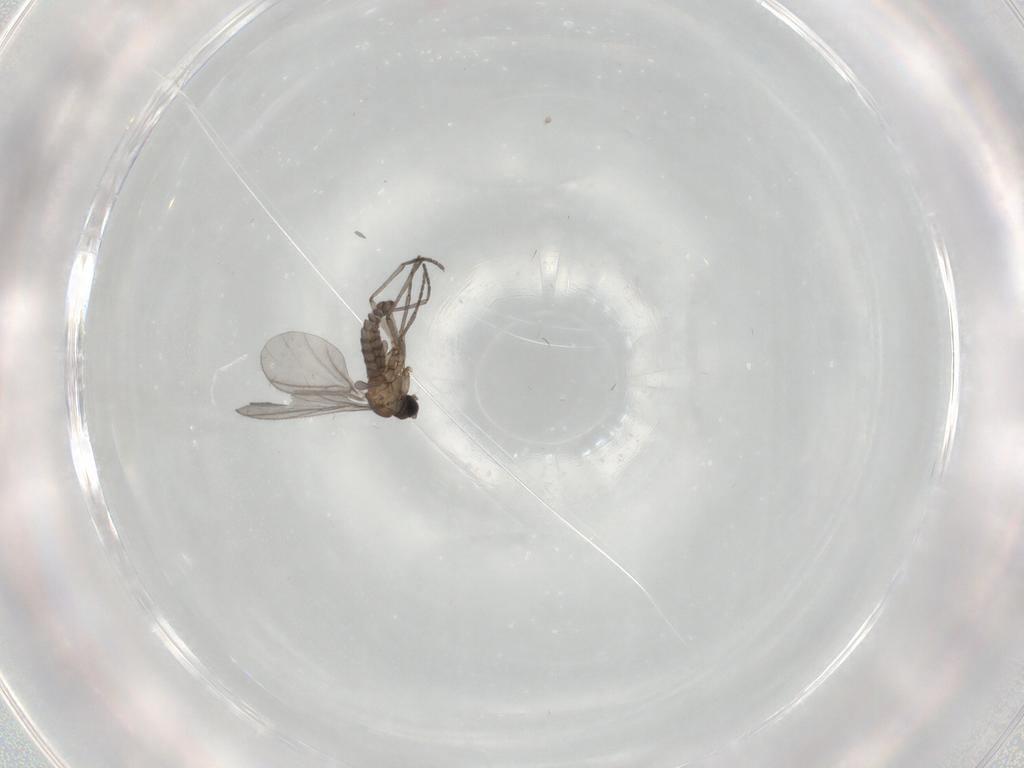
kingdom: Animalia
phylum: Arthropoda
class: Insecta
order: Diptera
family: Sciaridae
